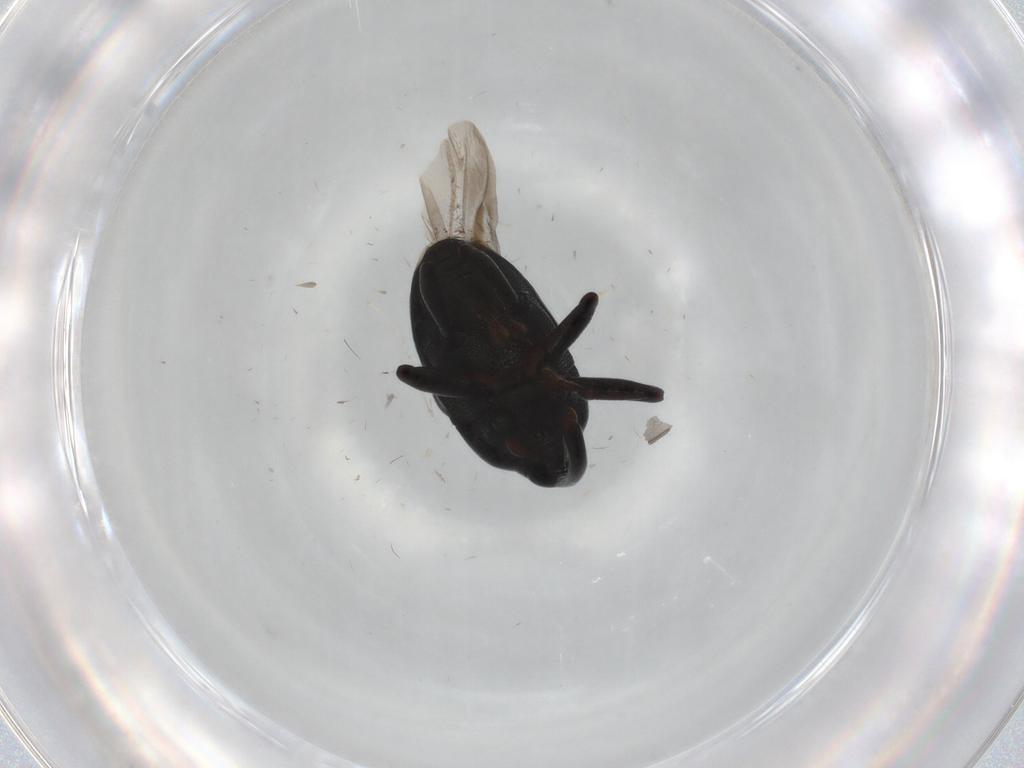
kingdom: Animalia
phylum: Arthropoda
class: Insecta
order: Coleoptera
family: Curculionidae
